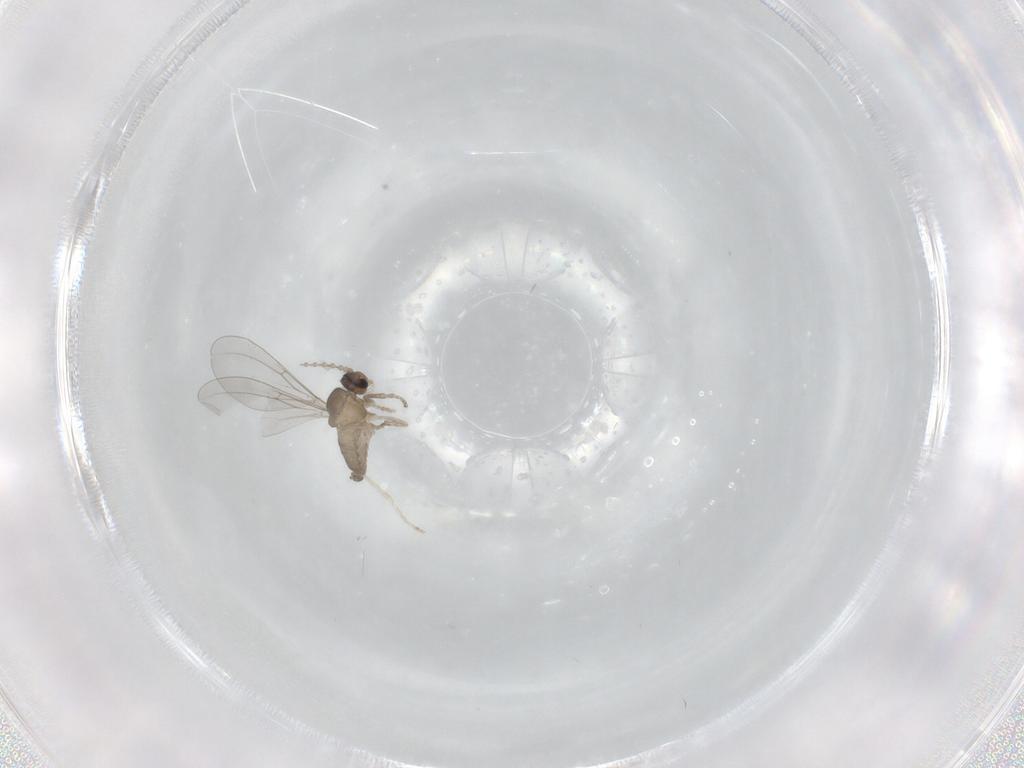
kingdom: Animalia
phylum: Arthropoda
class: Insecta
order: Diptera
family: Cecidomyiidae
